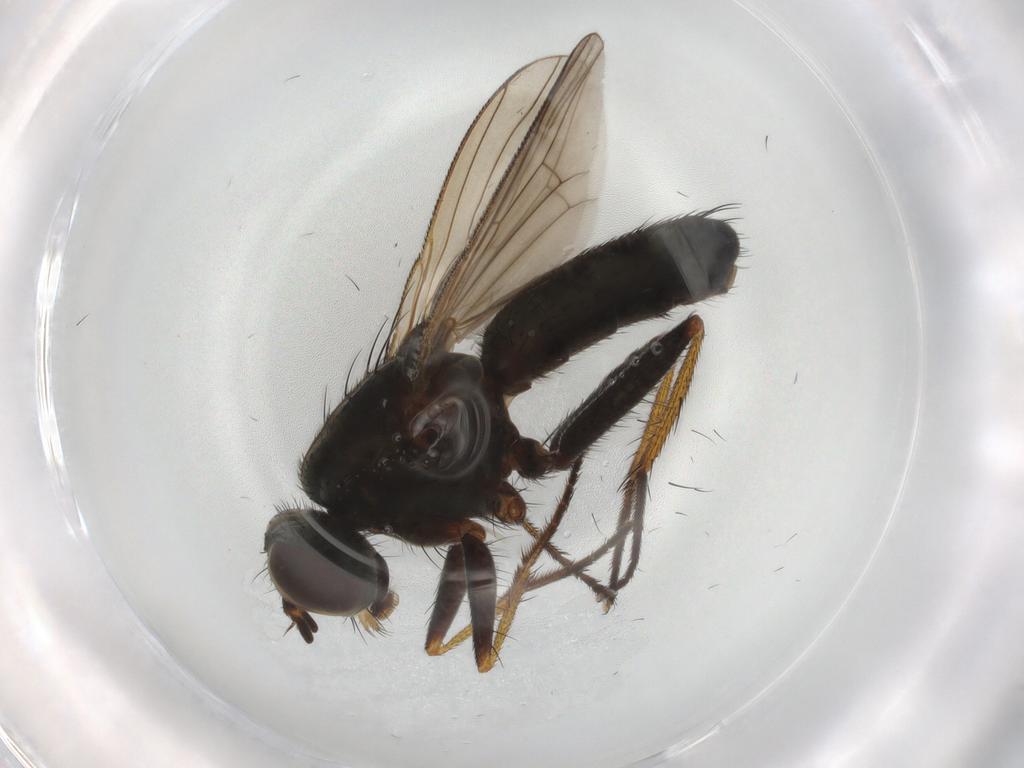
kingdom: Animalia
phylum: Arthropoda
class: Insecta
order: Diptera
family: Muscidae
